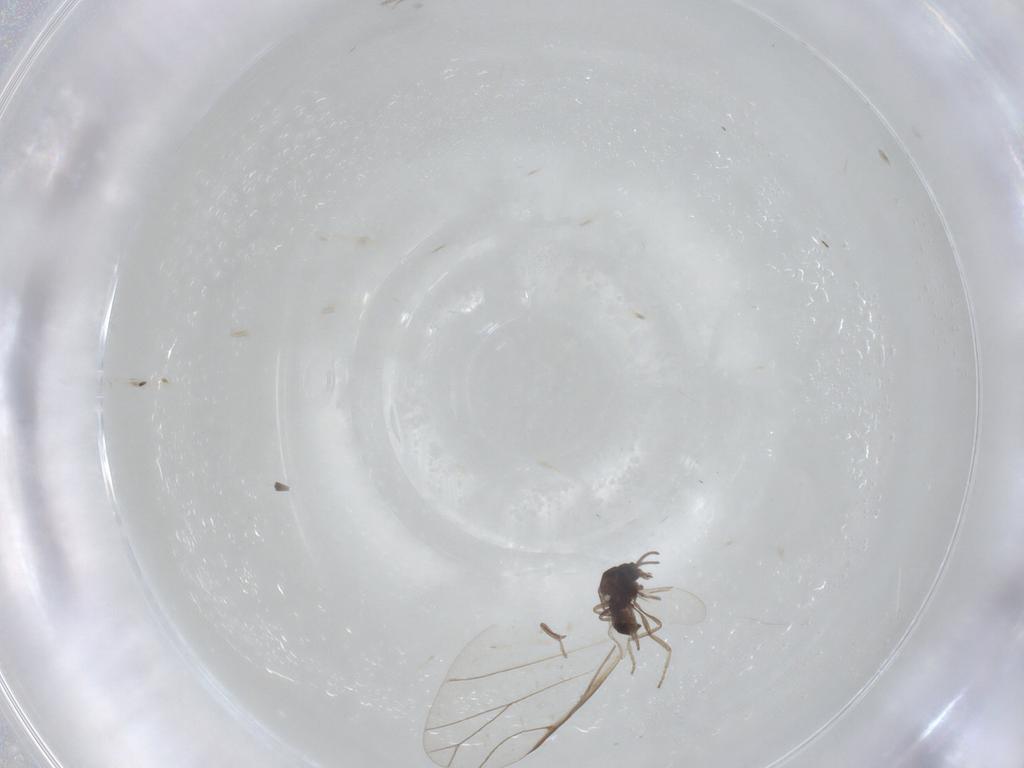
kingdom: Animalia
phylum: Arthropoda
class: Insecta
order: Diptera
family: Ceratopogonidae
